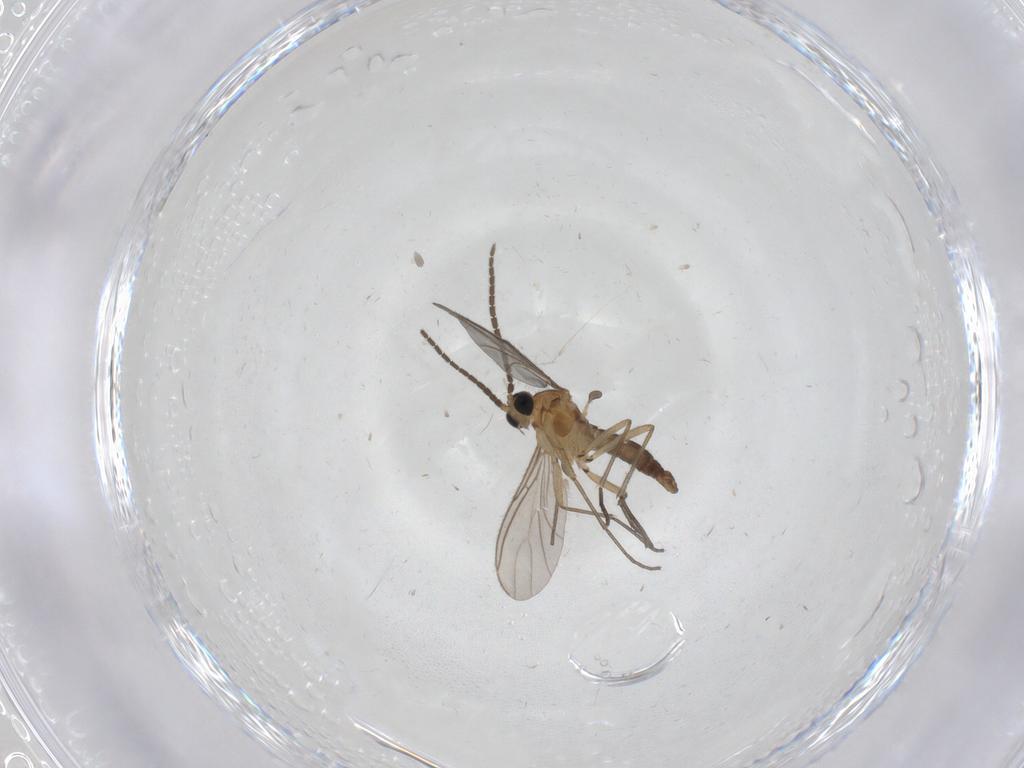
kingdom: Animalia
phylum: Arthropoda
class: Insecta
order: Diptera
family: Sciaridae
